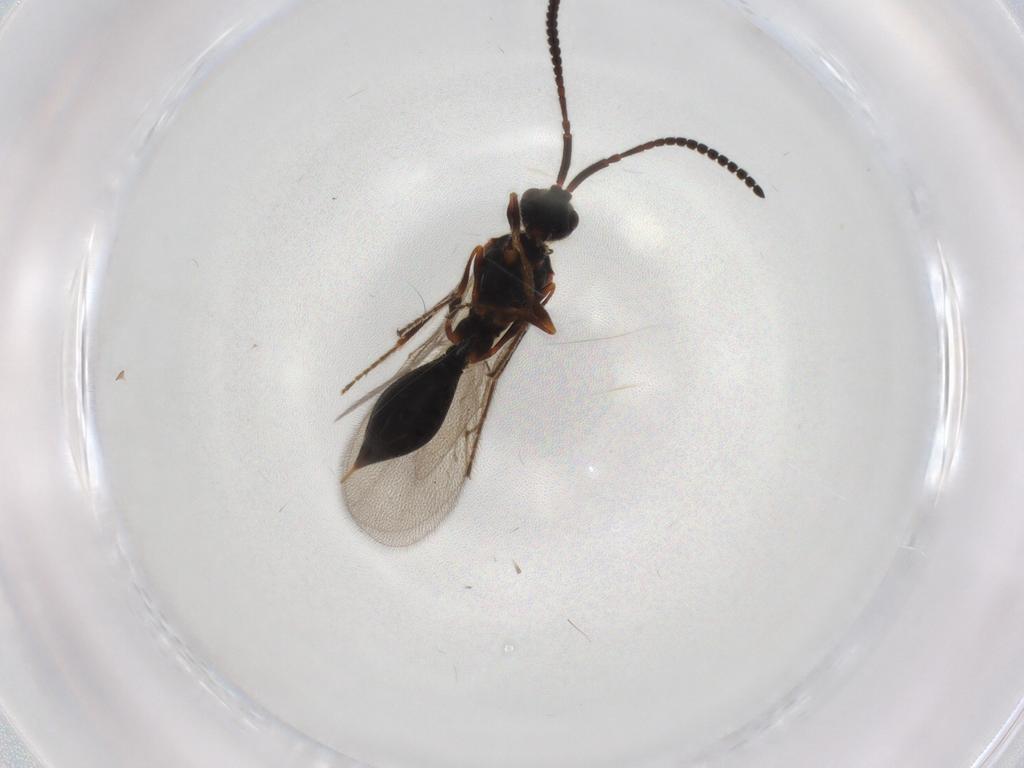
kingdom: Animalia
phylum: Arthropoda
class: Insecta
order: Hymenoptera
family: Diapriidae
